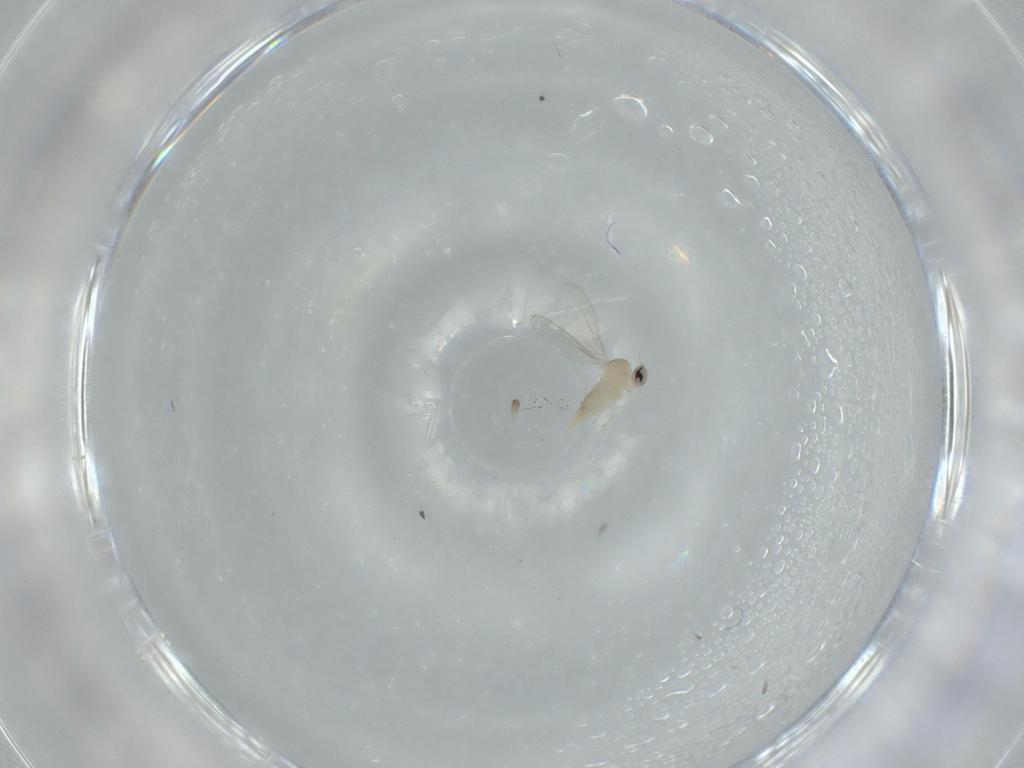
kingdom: Animalia
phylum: Arthropoda
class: Insecta
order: Diptera
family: Cecidomyiidae
